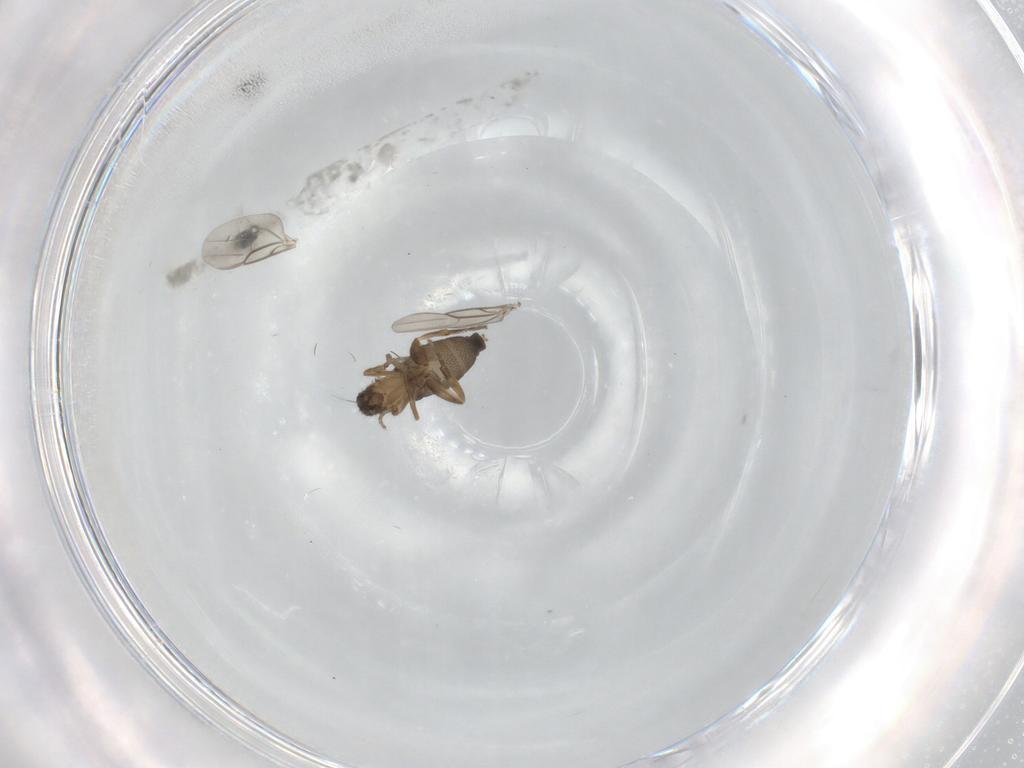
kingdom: Animalia
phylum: Arthropoda
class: Insecta
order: Diptera
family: Phoridae
